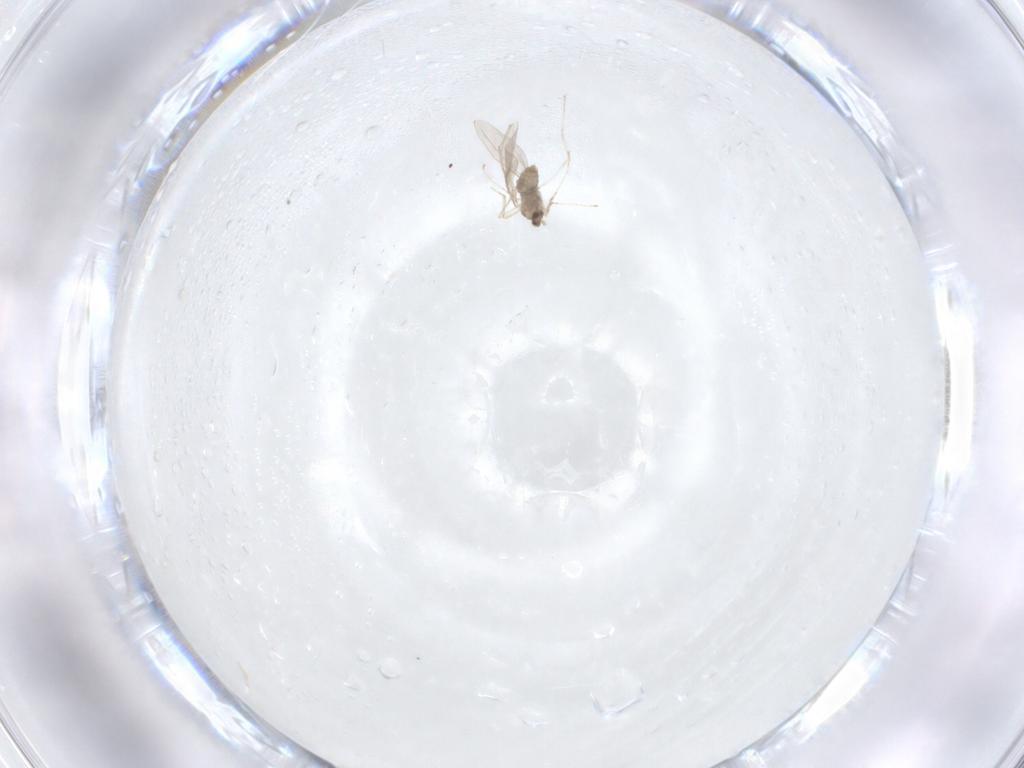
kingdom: Animalia
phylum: Arthropoda
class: Insecta
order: Diptera
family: Cecidomyiidae
